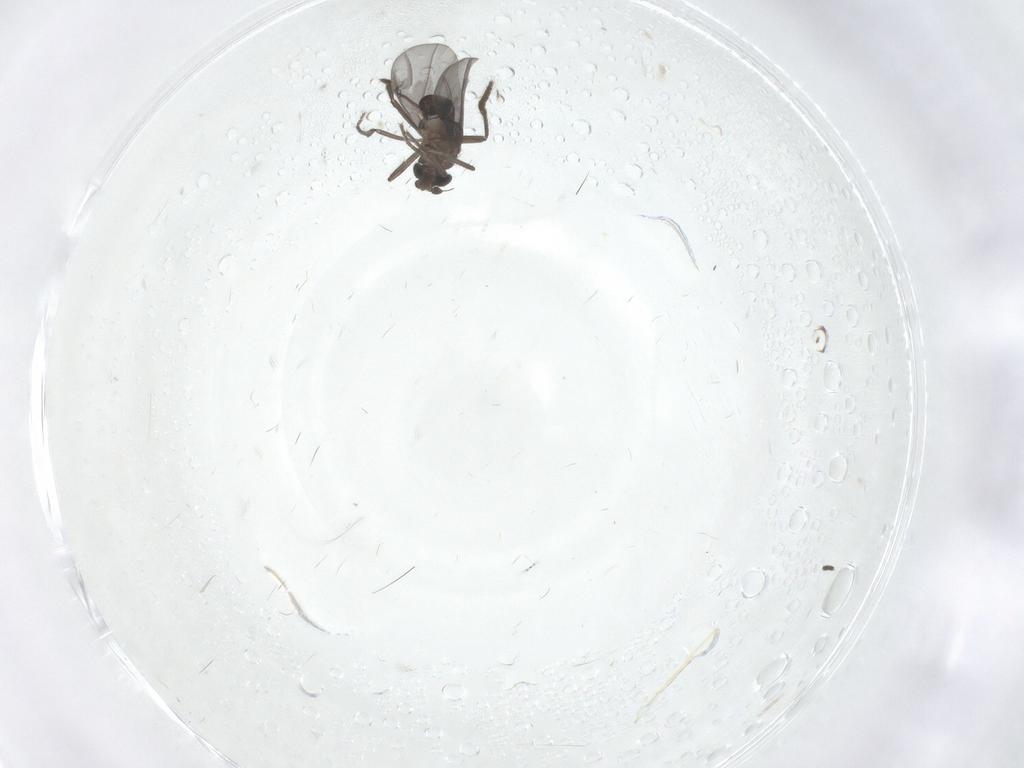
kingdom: Animalia
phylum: Arthropoda
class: Insecta
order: Diptera
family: Sciaridae
